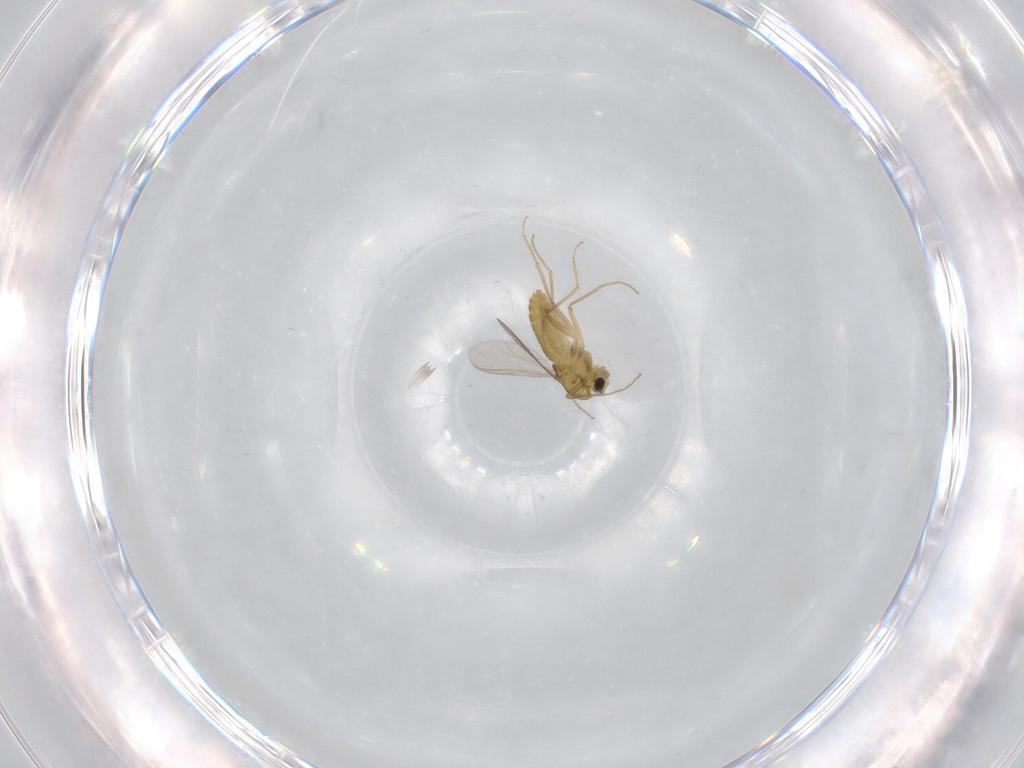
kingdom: Animalia
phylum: Arthropoda
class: Insecta
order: Diptera
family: Chironomidae
